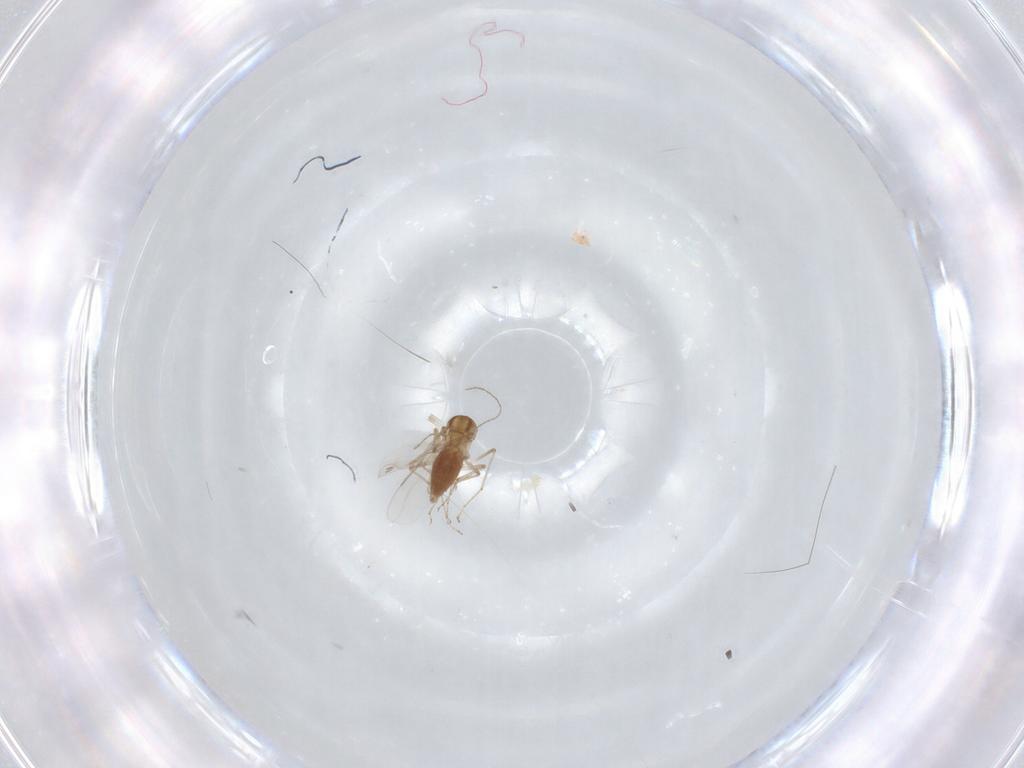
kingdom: Animalia
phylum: Arthropoda
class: Insecta
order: Diptera
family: Ceratopogonidae
